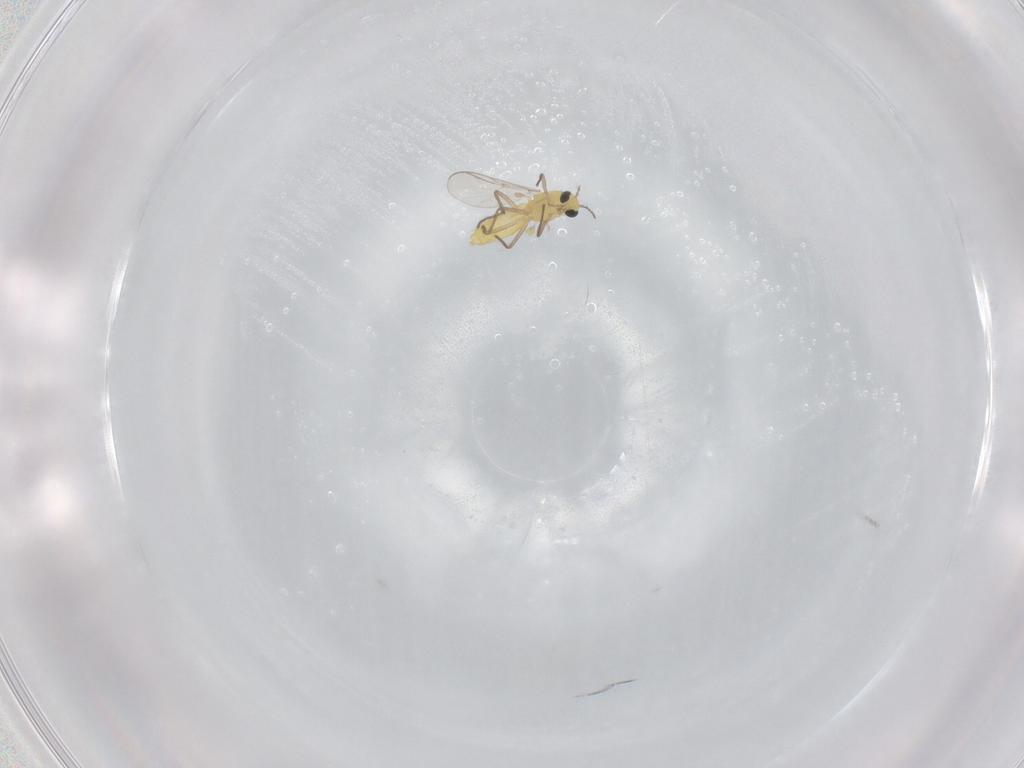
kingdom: Animalia
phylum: Arthropoda
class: Insecta
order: Diptera
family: Chironomidae
